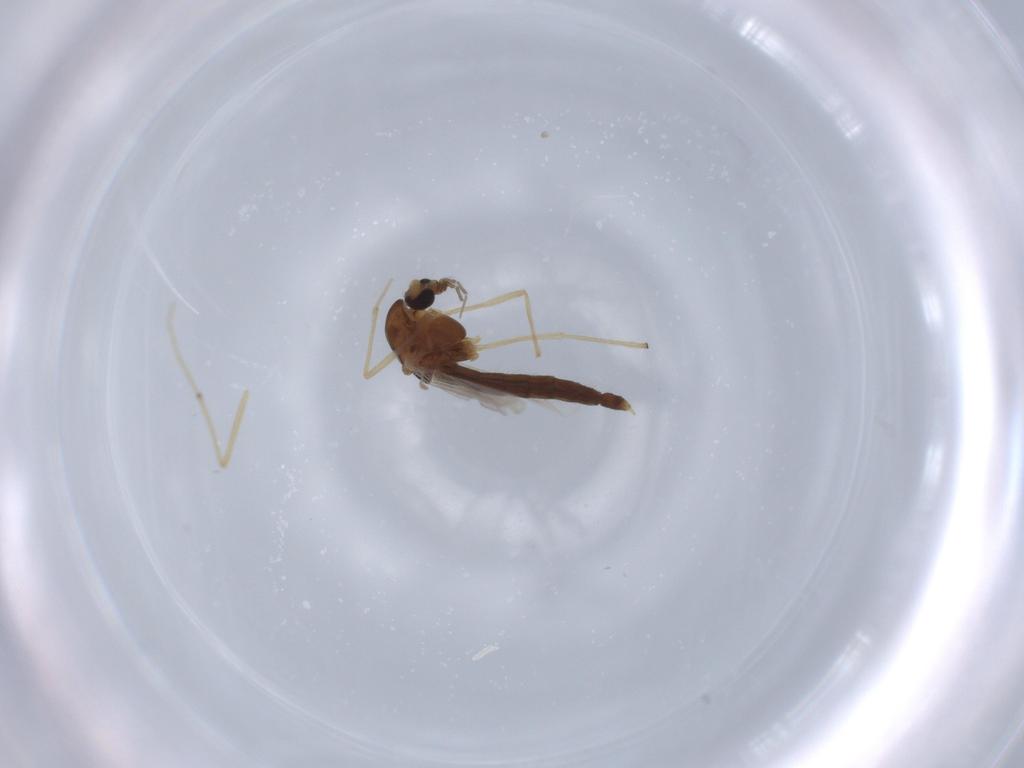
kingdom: Animalia
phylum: Arthropoda
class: Insecta
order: Diptera
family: Chironomidae
